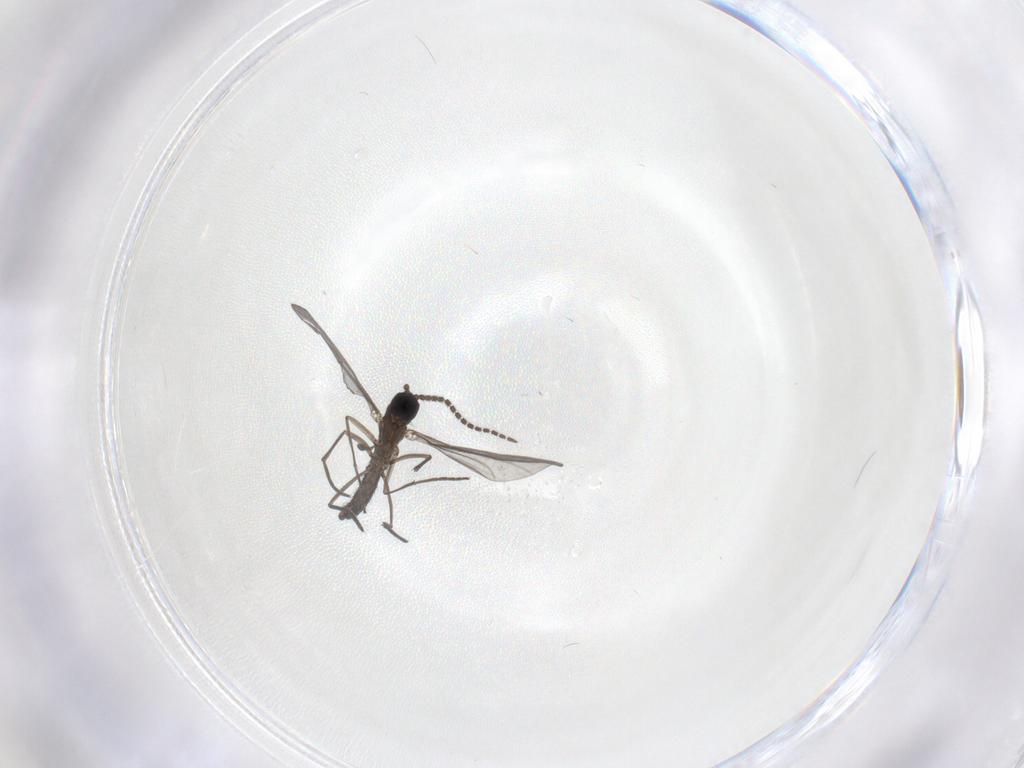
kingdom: Animalia
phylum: Arthropoda
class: Insecta
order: Diptera
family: Sciaridae
